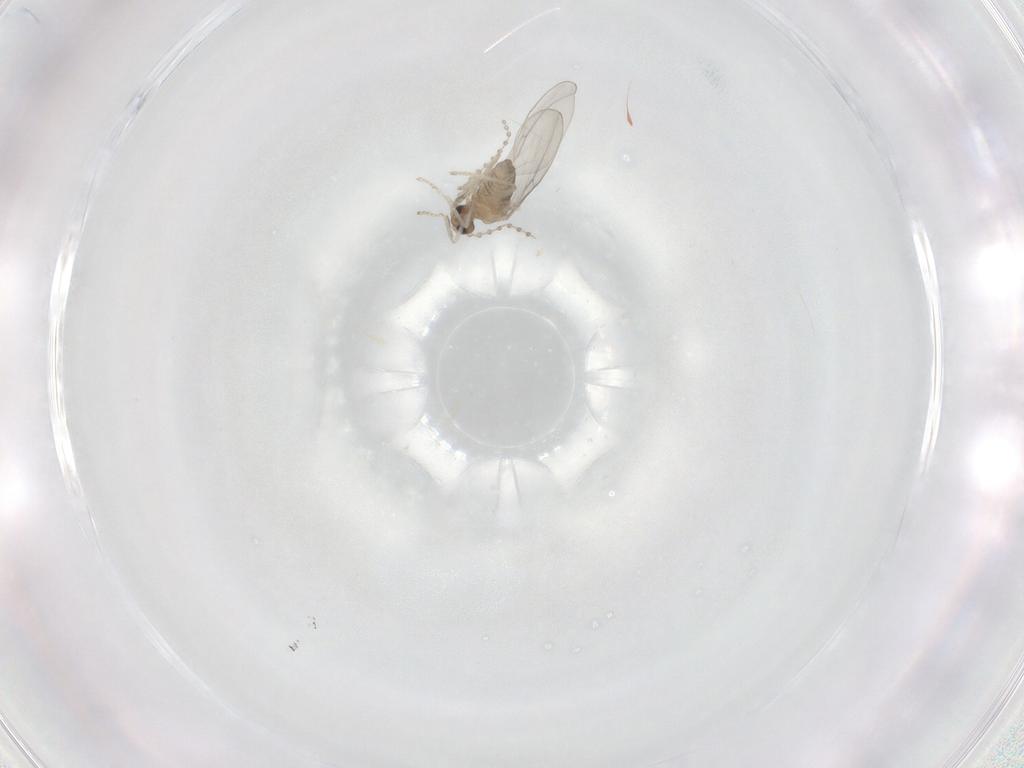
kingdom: Animalia
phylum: Arthropoda
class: Insecta
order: Diptera
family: Cecidomyiidae
